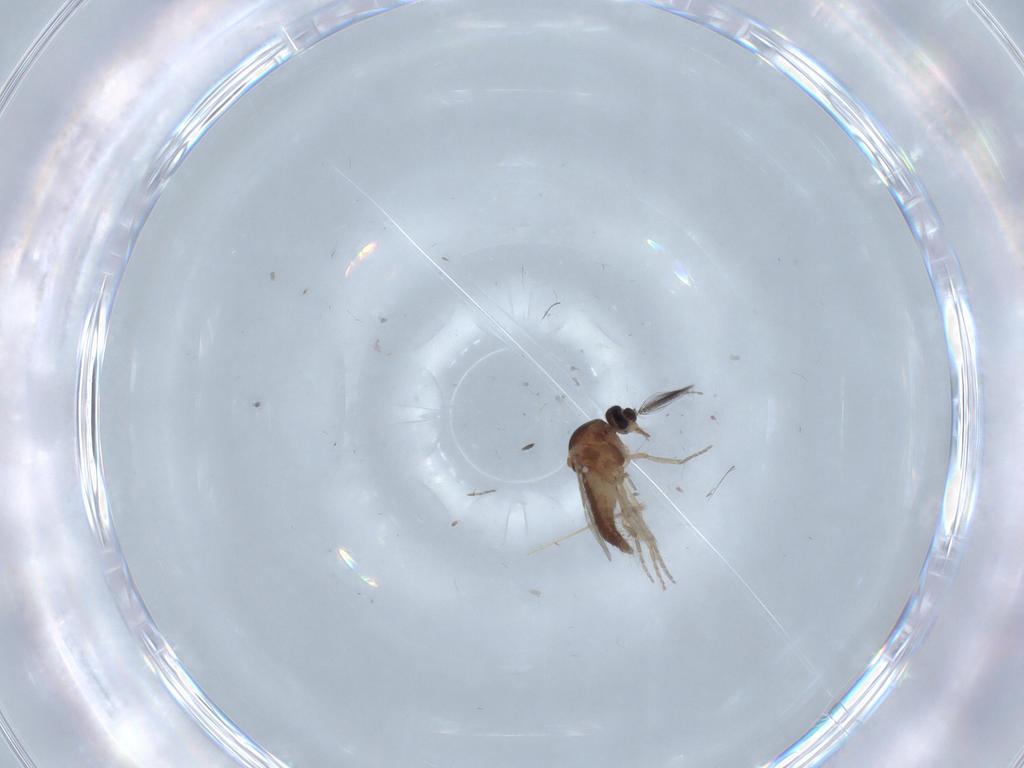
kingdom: Animalia
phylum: Arthropoda
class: Insecta
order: Diptera
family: Ceratopogonidae
